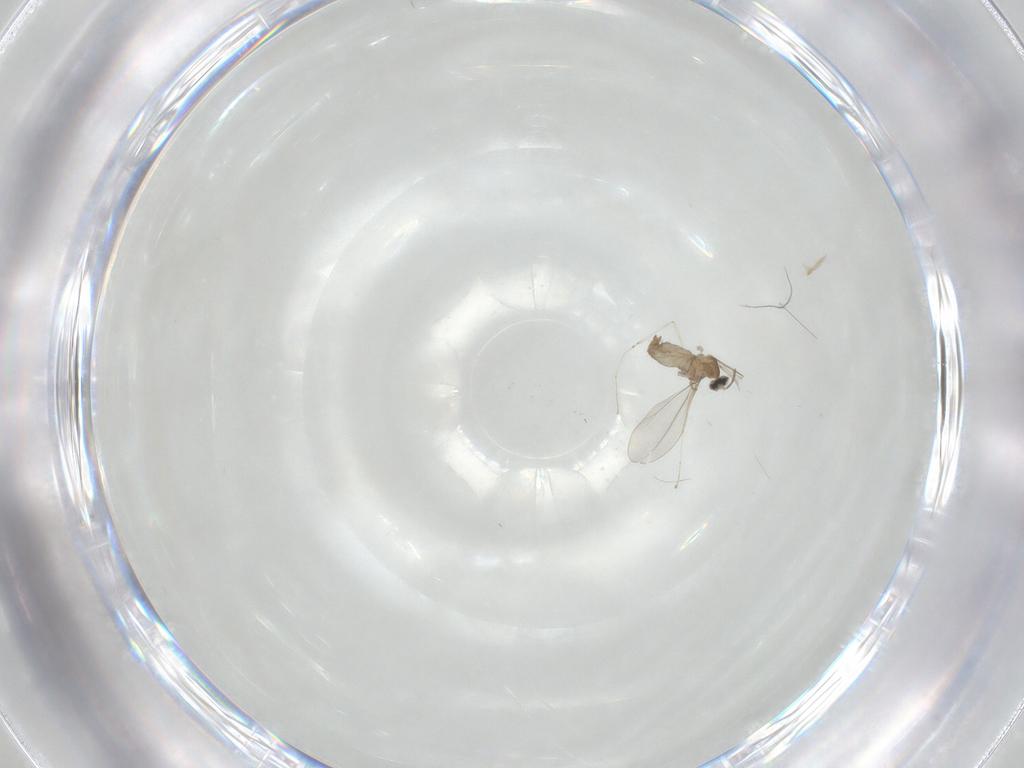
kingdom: Animalia
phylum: Arthropoda
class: Insecta
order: Diptera
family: Cecidomyiidae
